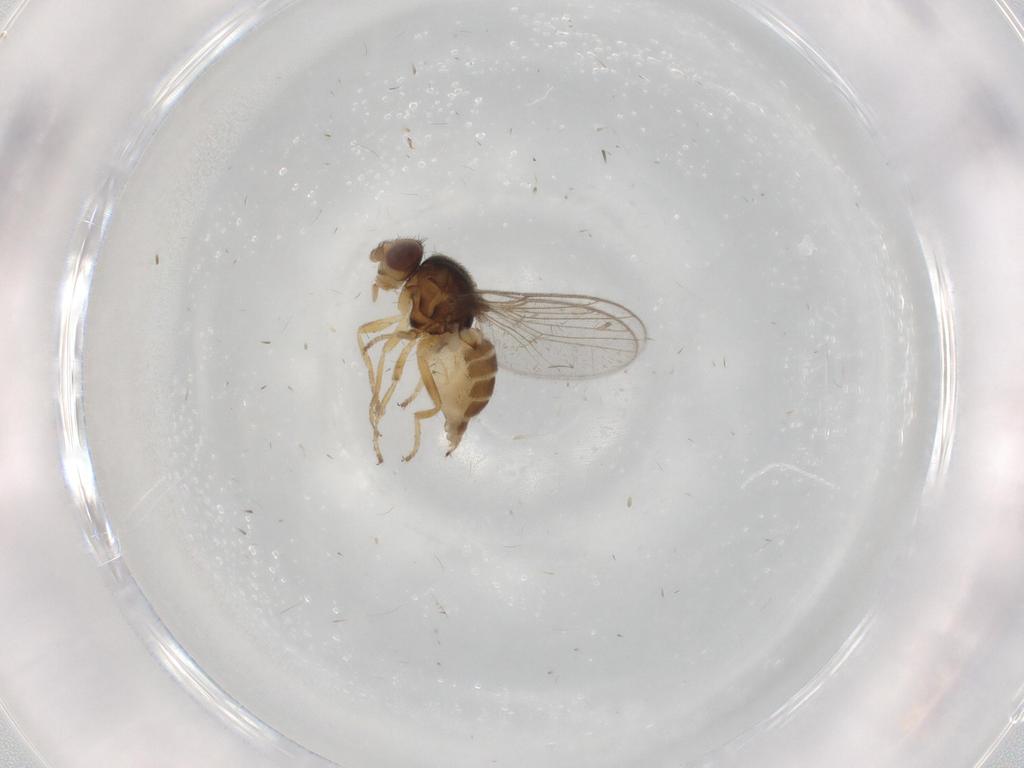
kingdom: Animalia
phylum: Arthropoda
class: Insecta
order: Diptera
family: Chloropidae
